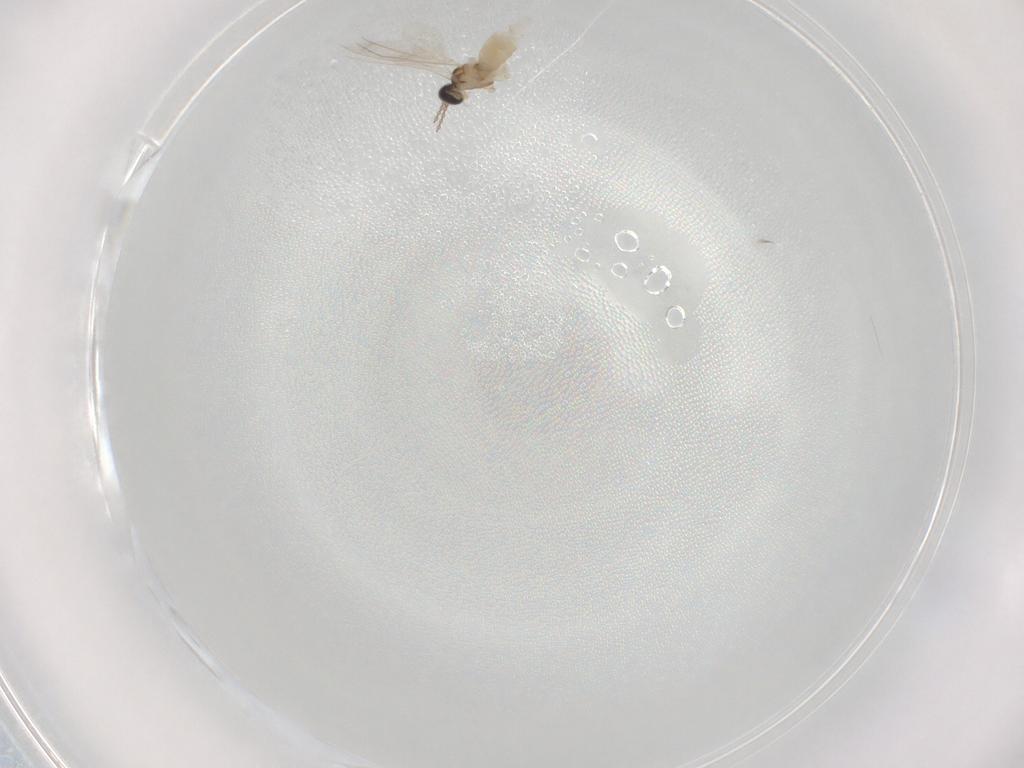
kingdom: Animalia
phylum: Arthropoda
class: Insecta
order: Diptera
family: Cecidomyiidae
